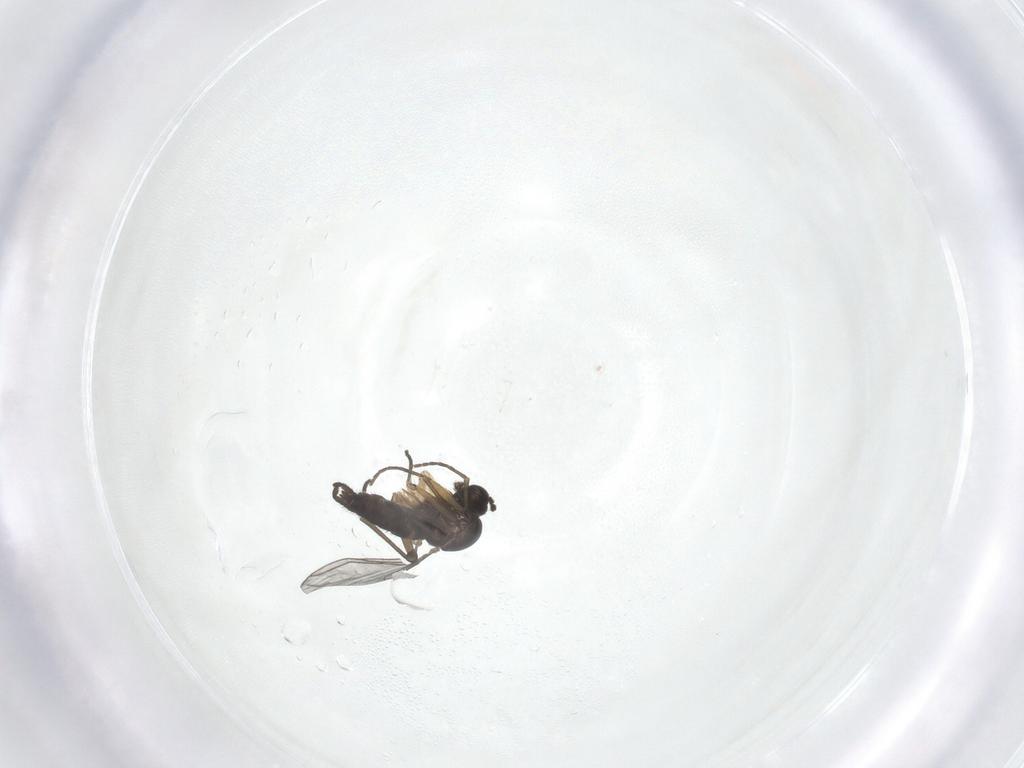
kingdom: Animalia
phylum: Arthropoda
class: Insecta
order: Diptera
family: Sciaridae
